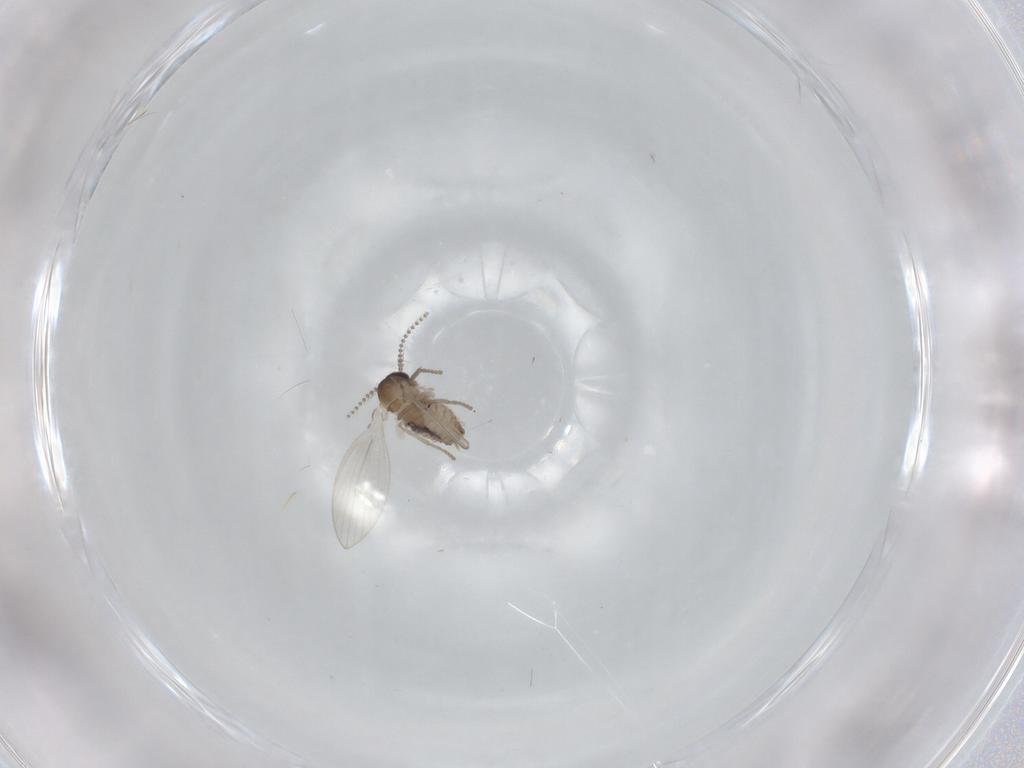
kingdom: Animalia
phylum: Arthropoda
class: Insecta
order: Diptera
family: Psychodidae
